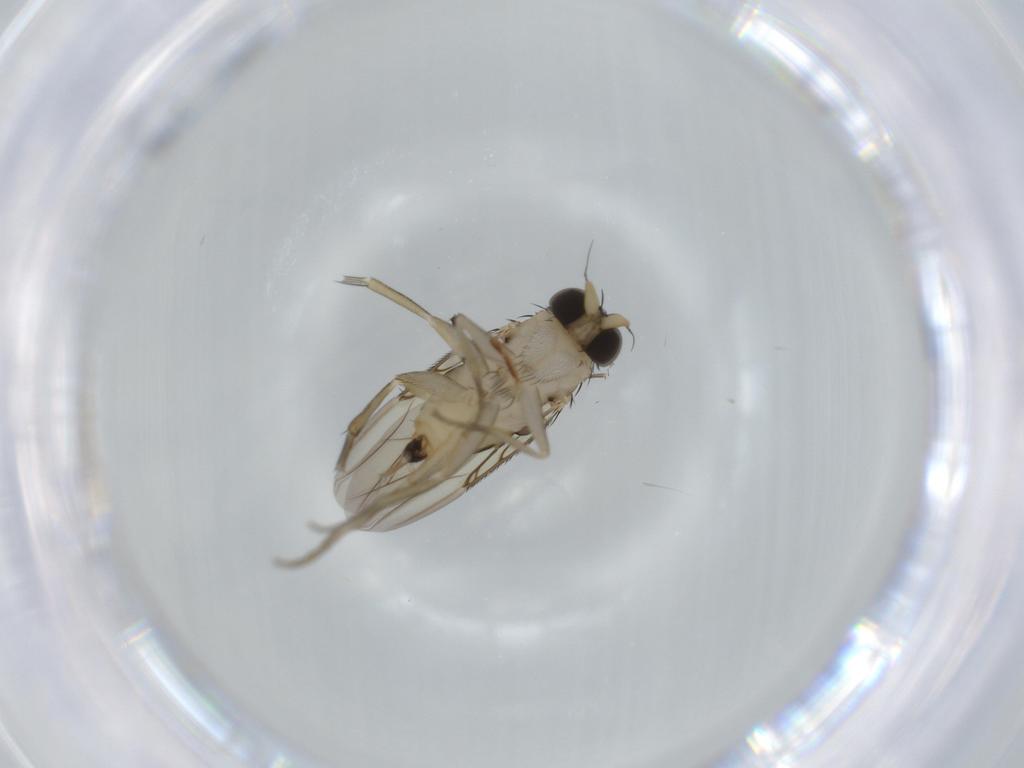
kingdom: Animalia
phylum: Arthropoda
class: Insecta
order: Diptera
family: Phoridae
